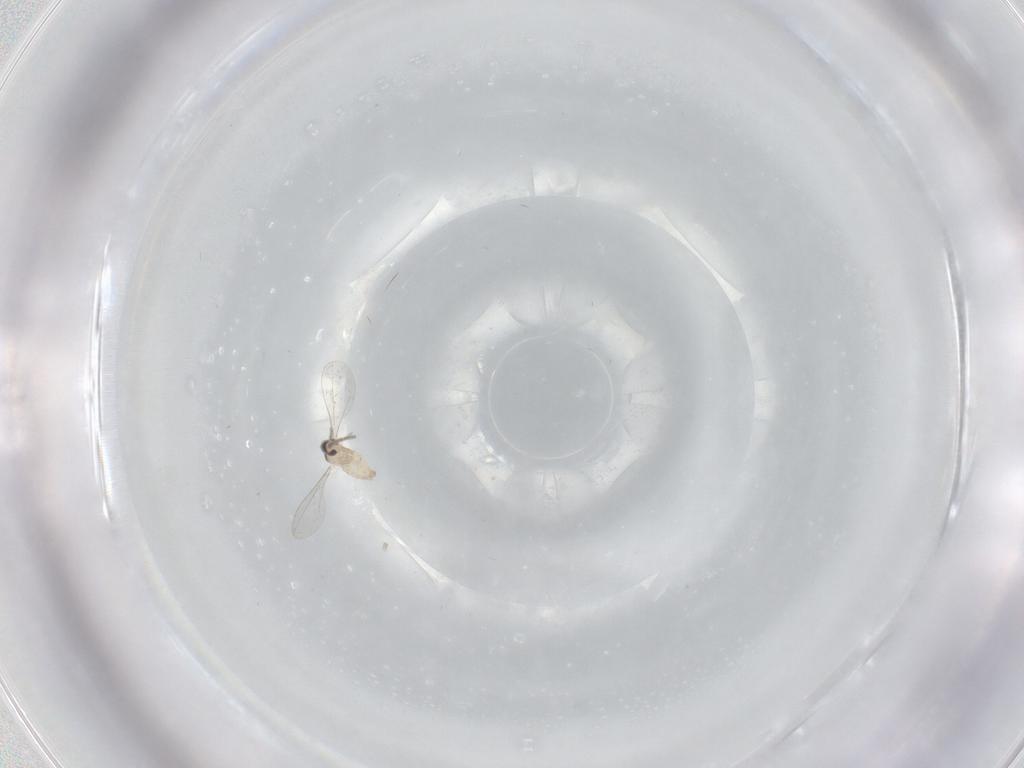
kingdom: Animalia
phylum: Arthropoda
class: Insecta
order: Diptera
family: Cecidomyiidae
